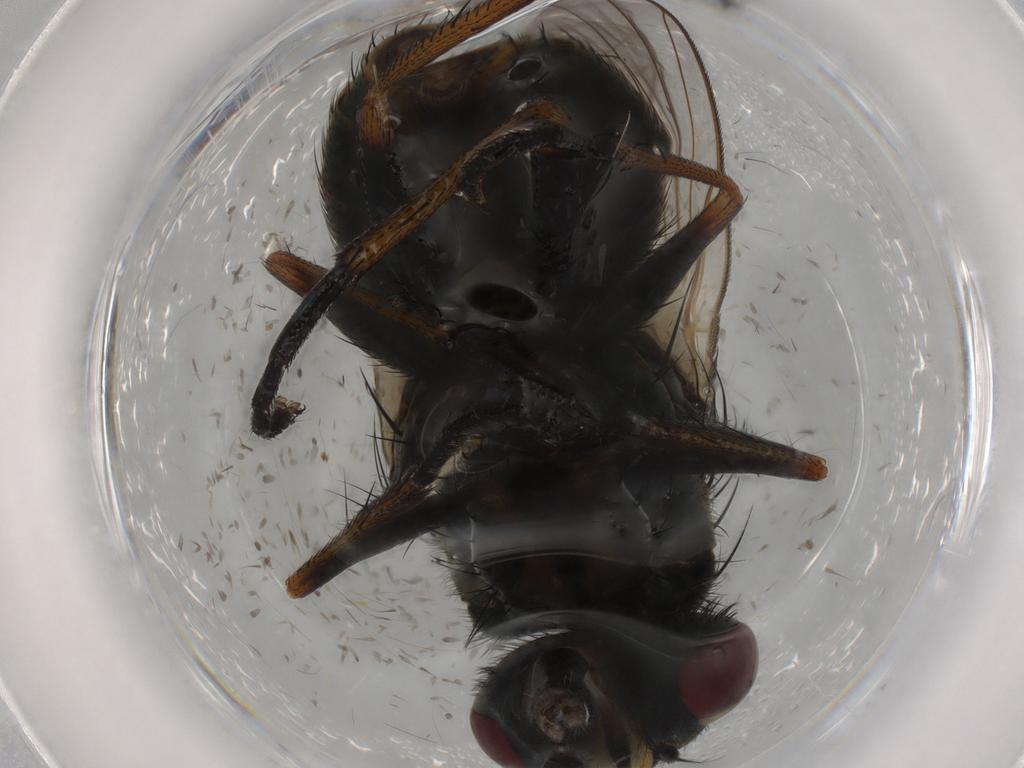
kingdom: Animalia
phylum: Arthropoda
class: Insecta
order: Diptera
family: Muscidae
